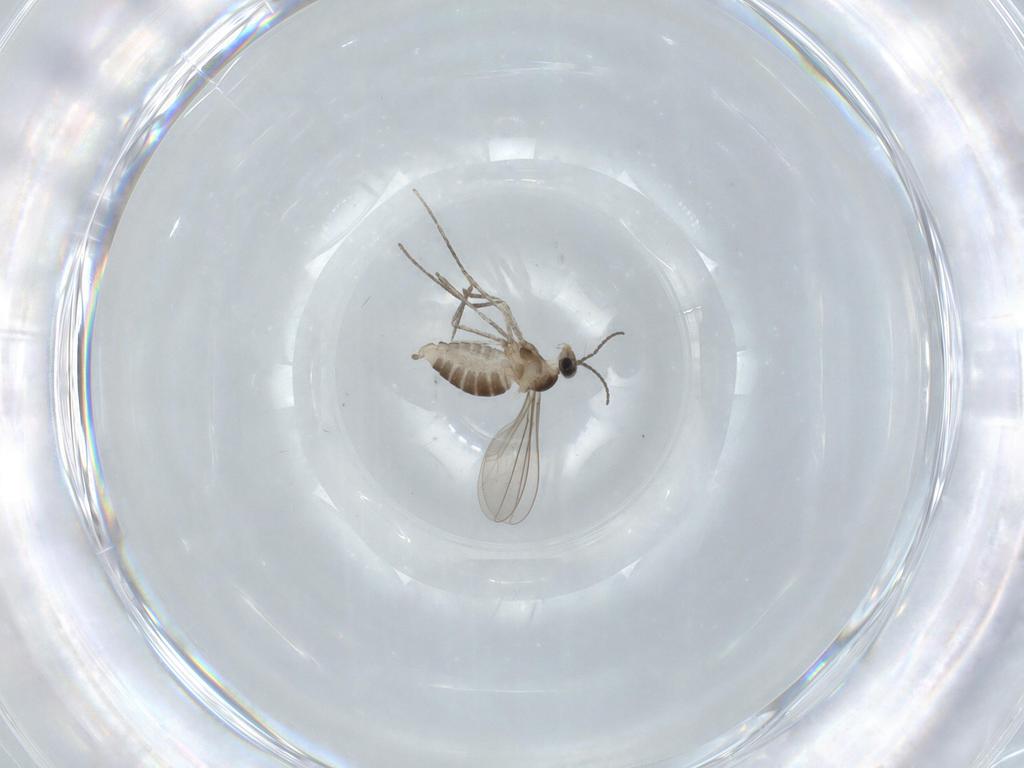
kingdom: Animalia
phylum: Arthropoda
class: Insecta
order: Diptera
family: Cecidomyiidae
